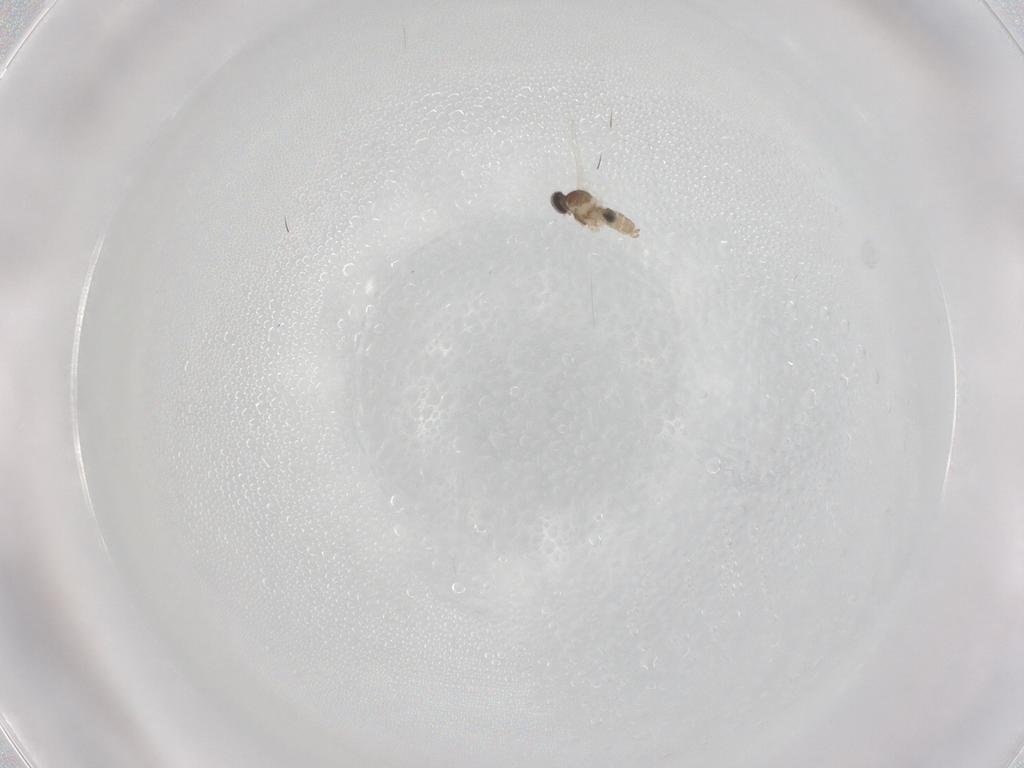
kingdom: Animalia
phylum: Arthropoda
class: Insecta
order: Diptera
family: Cecidomyiidae
